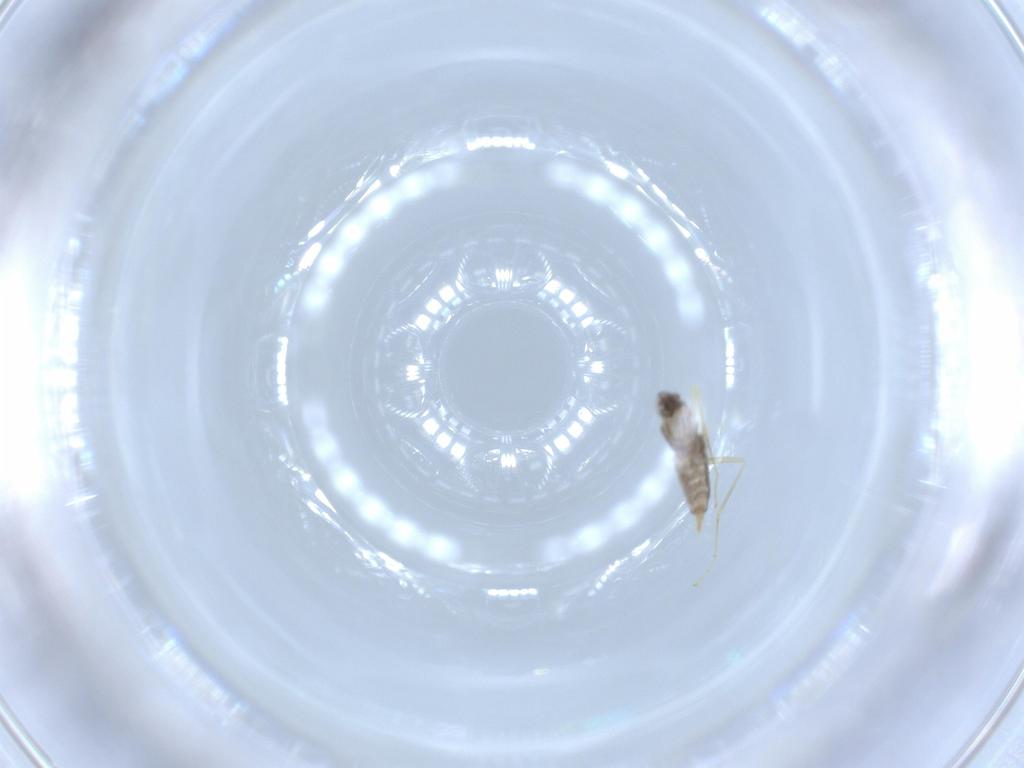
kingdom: Animalia
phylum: Arthropoda
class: Insecta
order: Diptera
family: Cecidomyiidae
